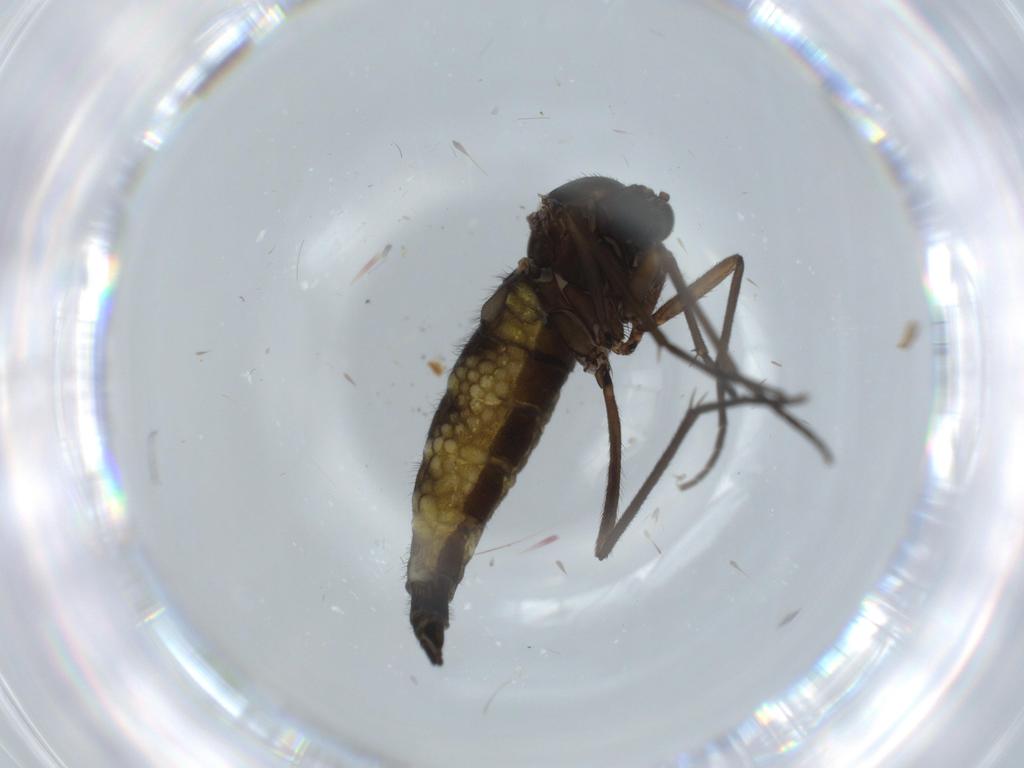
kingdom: Animalia
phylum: Arthropoda
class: Insecta
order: Diptera
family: Sciaridae
